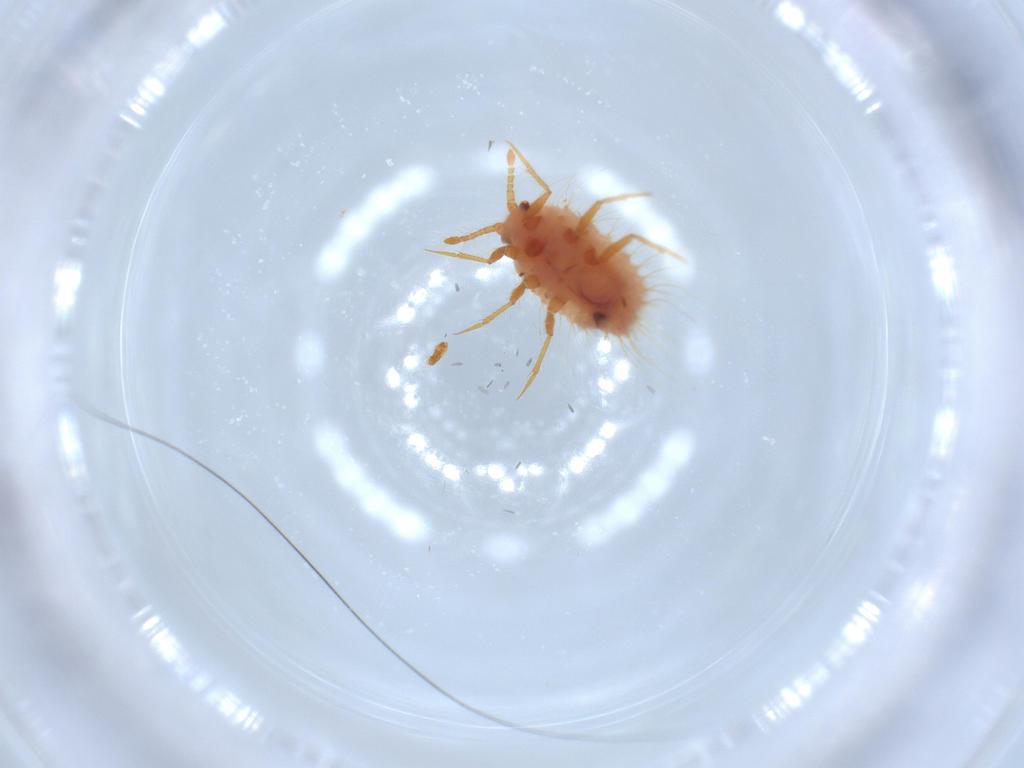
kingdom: Animalia
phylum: Arthropoda
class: Insecta
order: Hemiptera
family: Coccoidea_incertae_sedis
